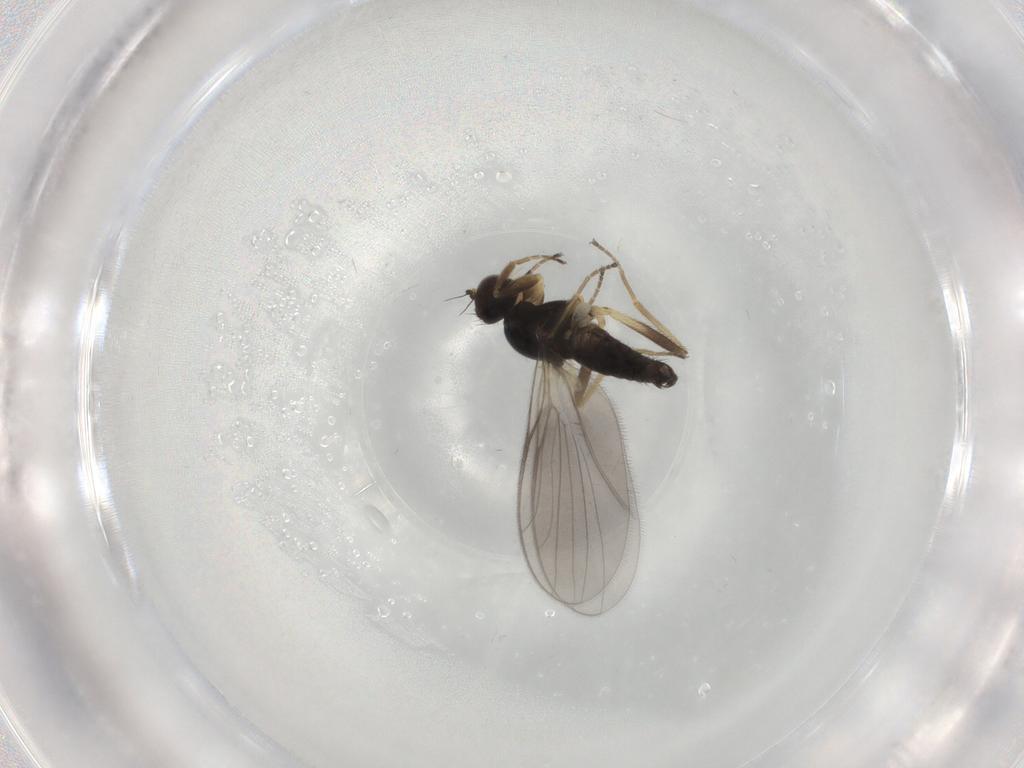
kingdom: Animalia
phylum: Arthropoda
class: Insecta
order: Diptera
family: Hybotidae
